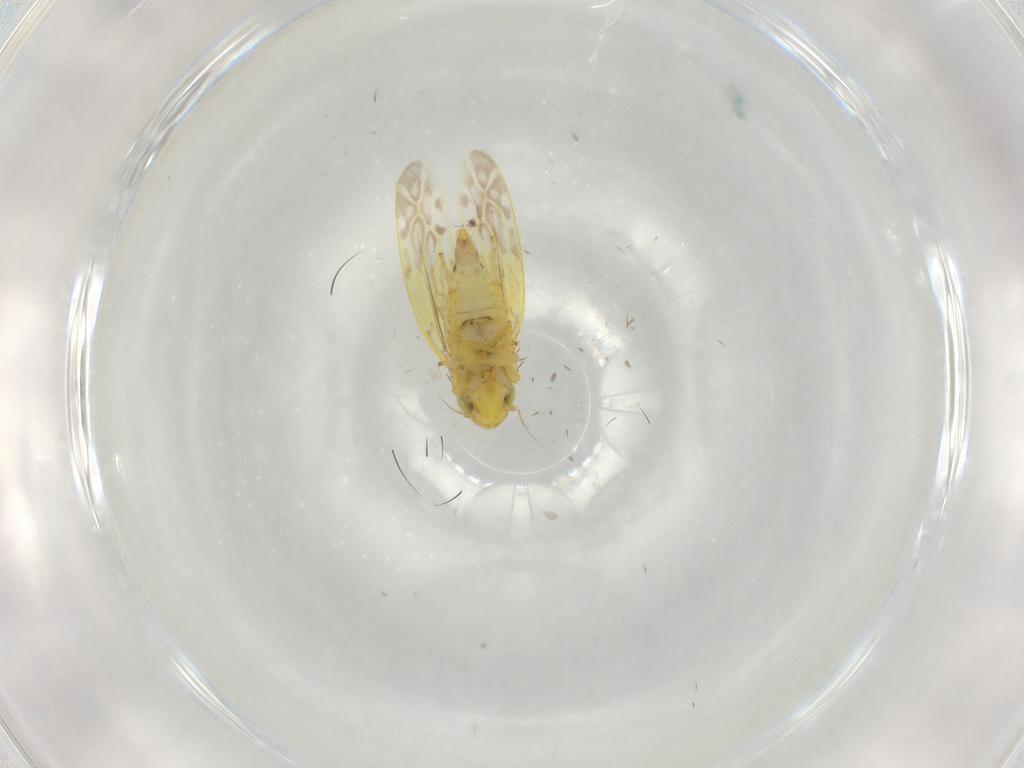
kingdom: Animalia
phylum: Arthropoda
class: Insecta
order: Hemiptera
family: Cicadellidae
